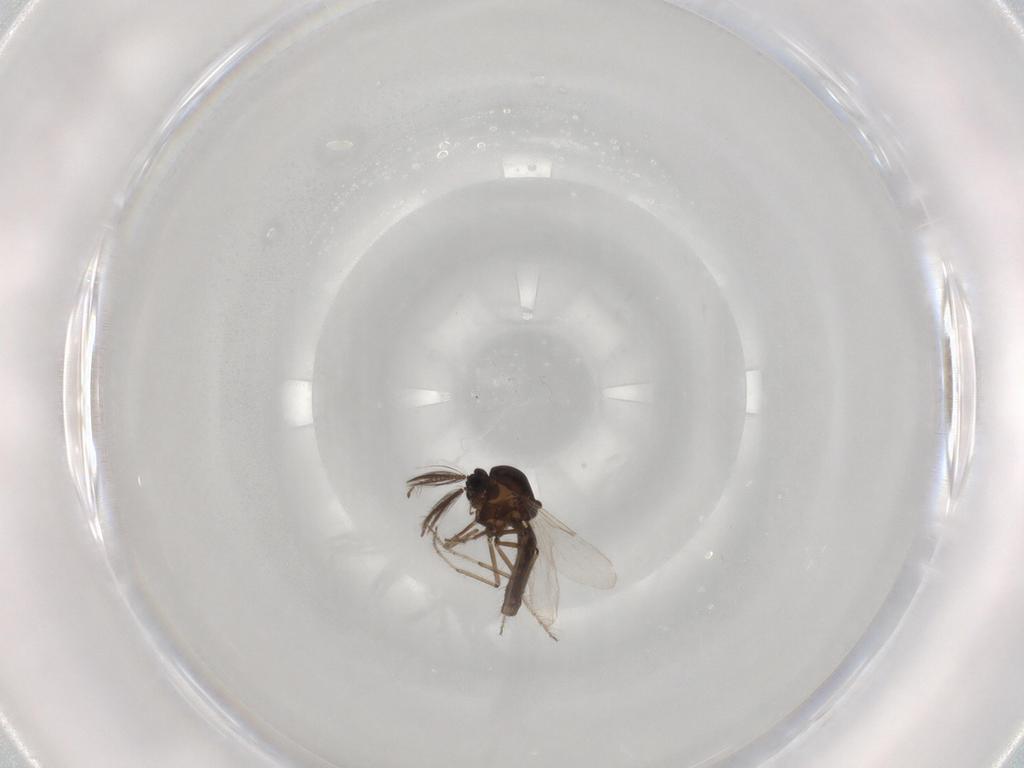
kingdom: Animalia
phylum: Arthropoda
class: Insecta
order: Diptera
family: Chironomidae
